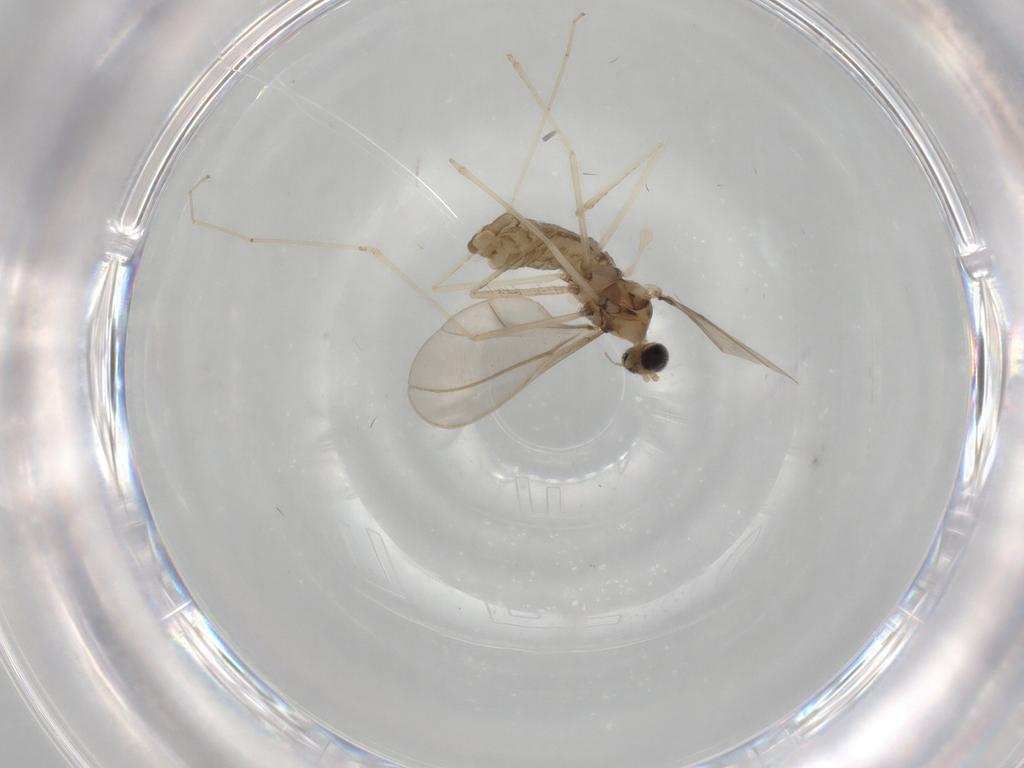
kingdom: Animalia
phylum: Arthropoda
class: Insecta
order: Diptera
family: Cecidomyiidae
